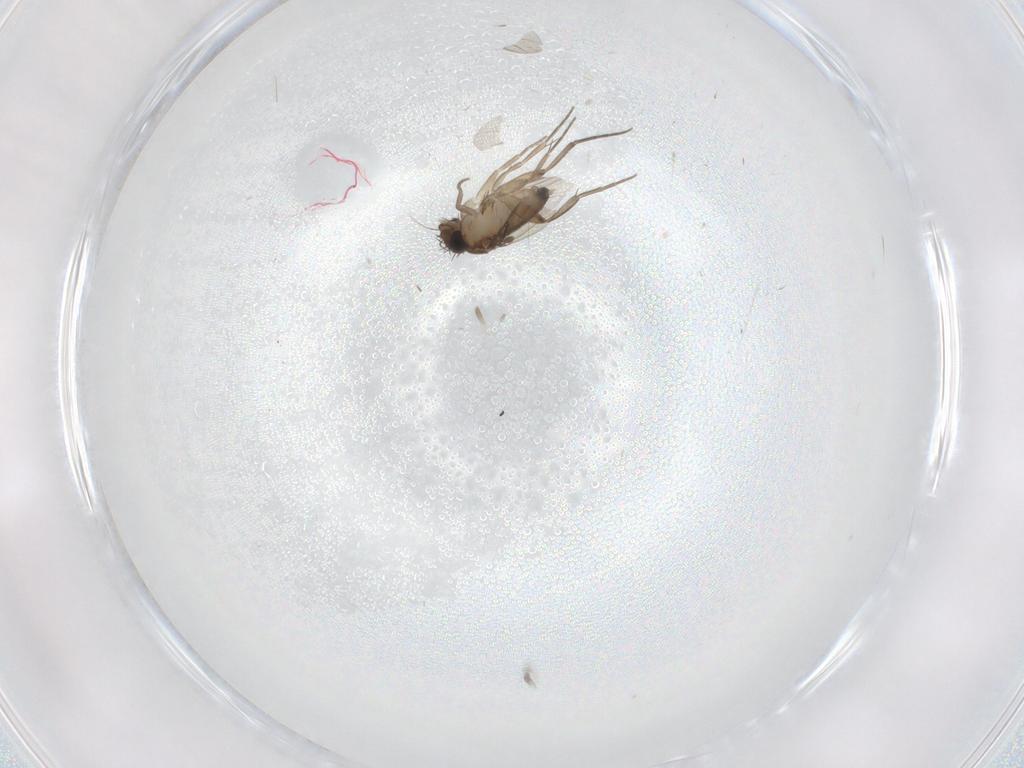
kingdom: Animalia
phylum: Arthropoda
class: Insecta
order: Diptera
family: Phoridae
